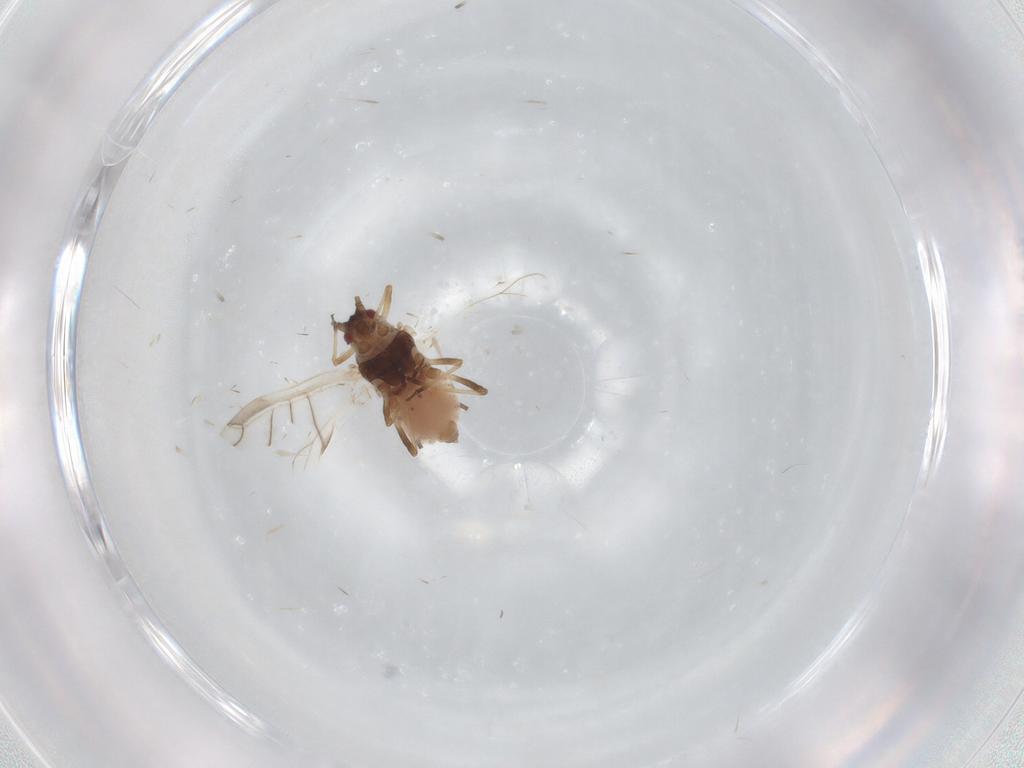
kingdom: Animalia
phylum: Arthropoda
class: Insecta
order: Hemiptera
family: Aphididae
